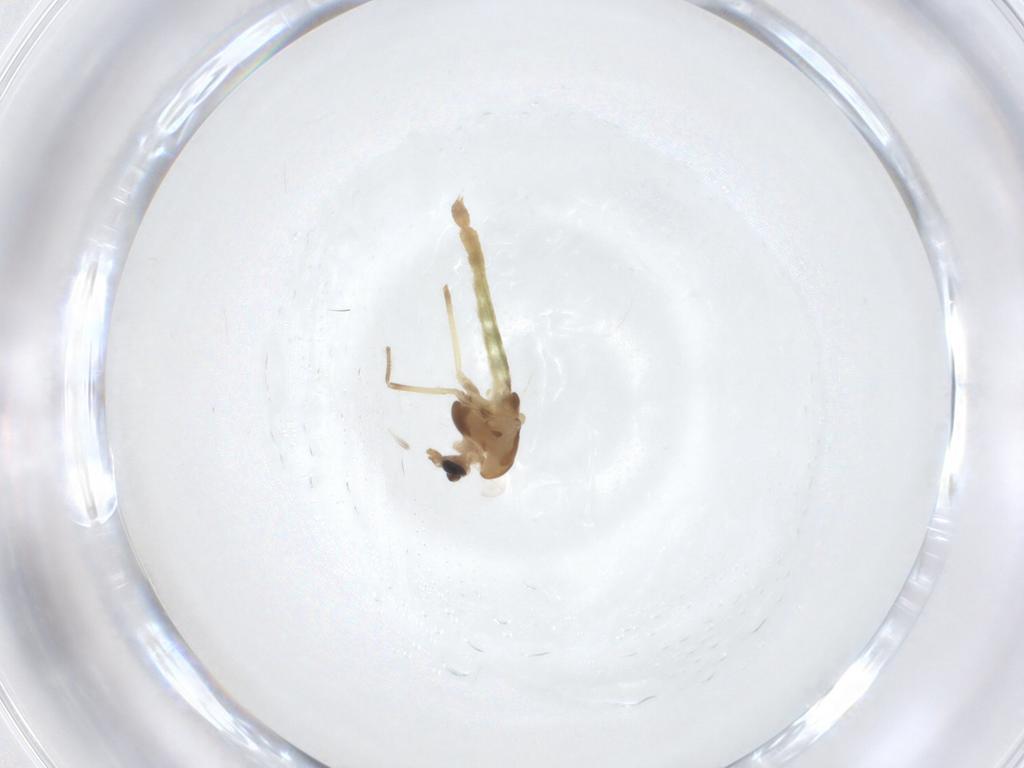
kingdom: Animalia
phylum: Arthropoda
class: Insecta
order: Diptera
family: Chironomidae
